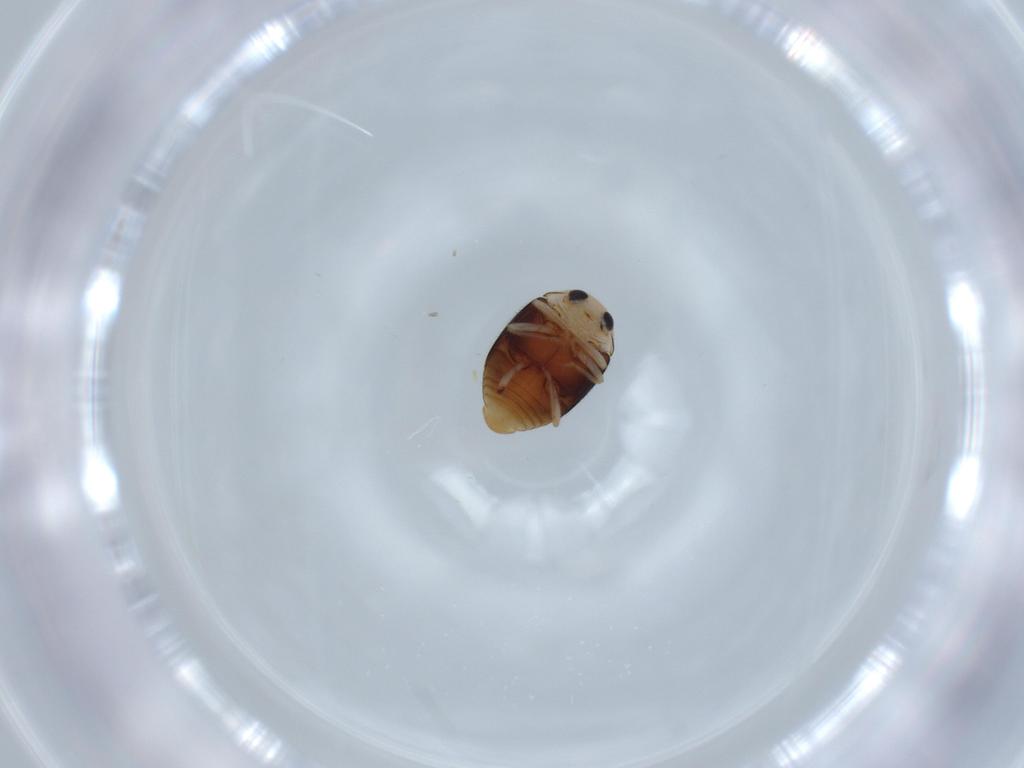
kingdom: Animalia
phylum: Arthropoda
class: Insecta
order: Coleoptera
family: Coccinellidae
